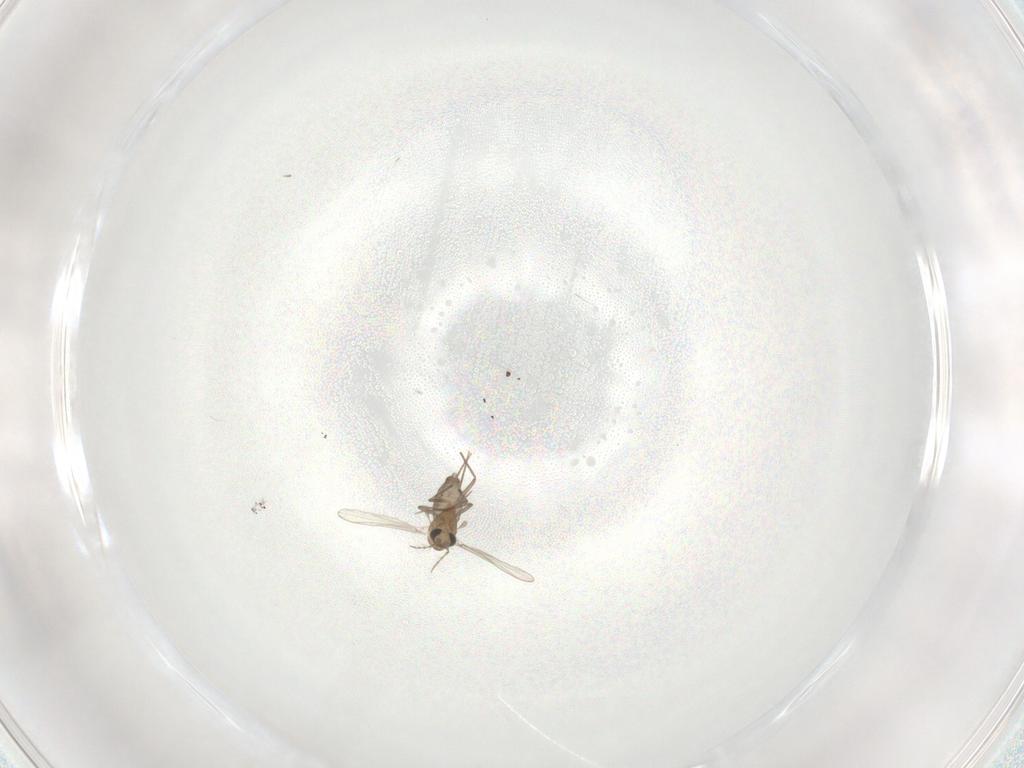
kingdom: Animalia
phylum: Arthropoda
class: Insecta
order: Diptera
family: Chironomidae
